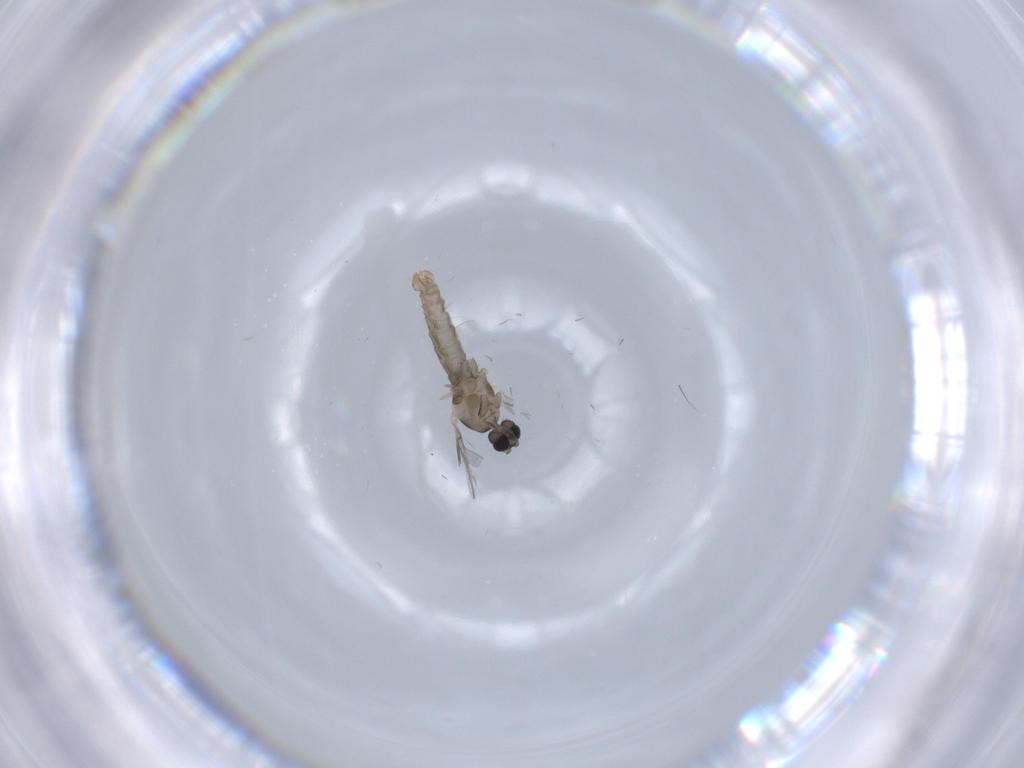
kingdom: Animalia
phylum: Arthropoda
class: Insecta
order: Diptera
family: Cecidomyiidae
